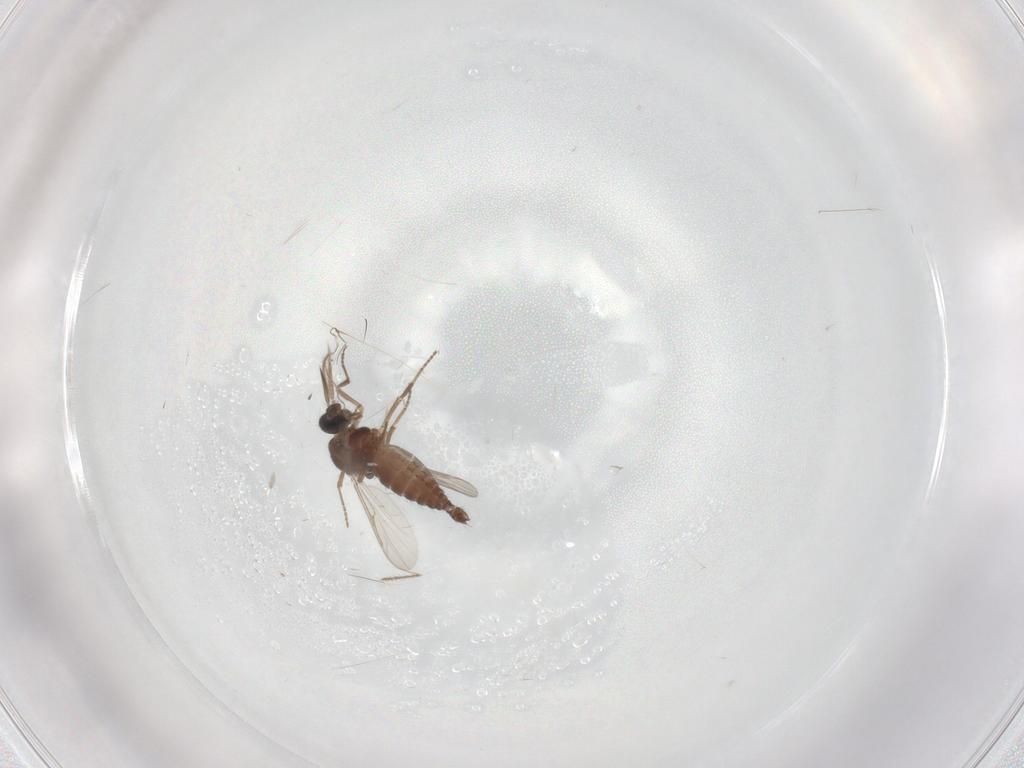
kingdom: Animalia
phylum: Arthropoda
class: Insecta
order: Diptera
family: Ceratopogonidae
